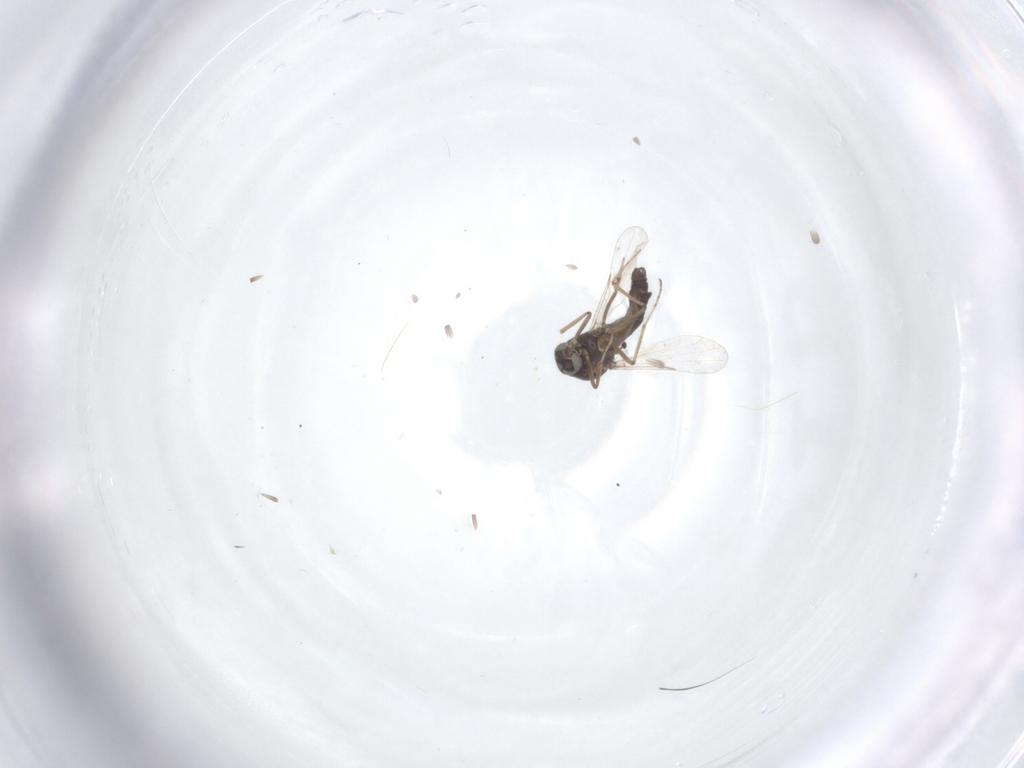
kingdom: Animalia
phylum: Arthropoda
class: Insecta
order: Diptera
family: Ceratopogonidae
